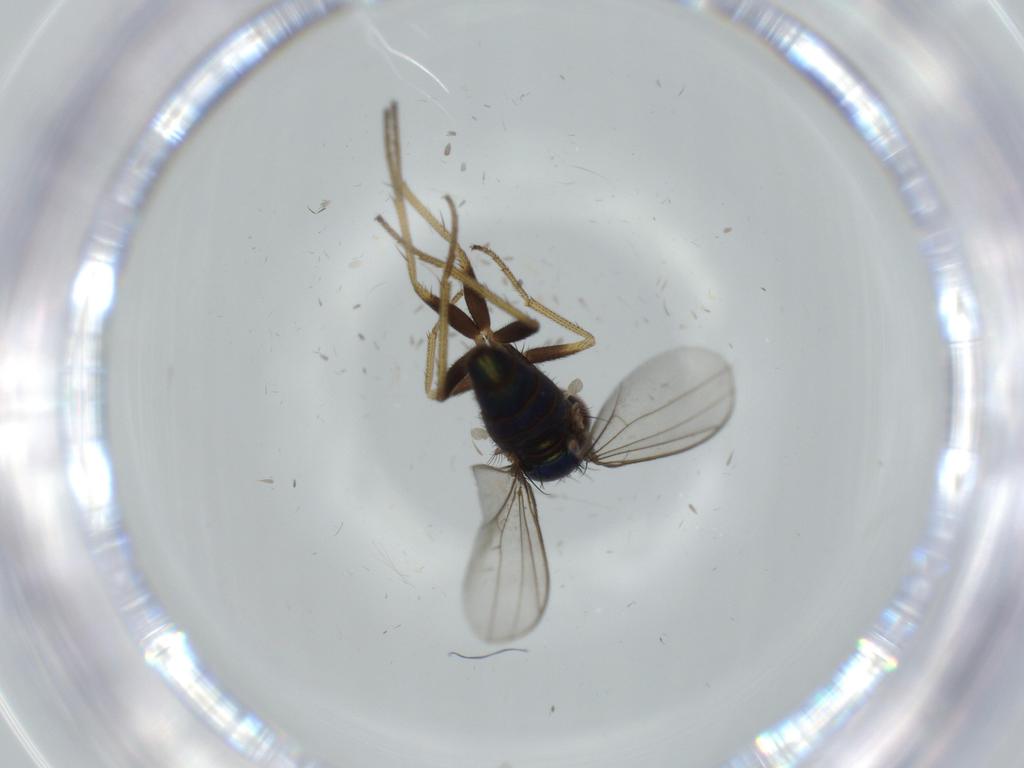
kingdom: Animalia
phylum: Arthropoda
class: Insecta
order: Diptera
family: Dolichopodidae
